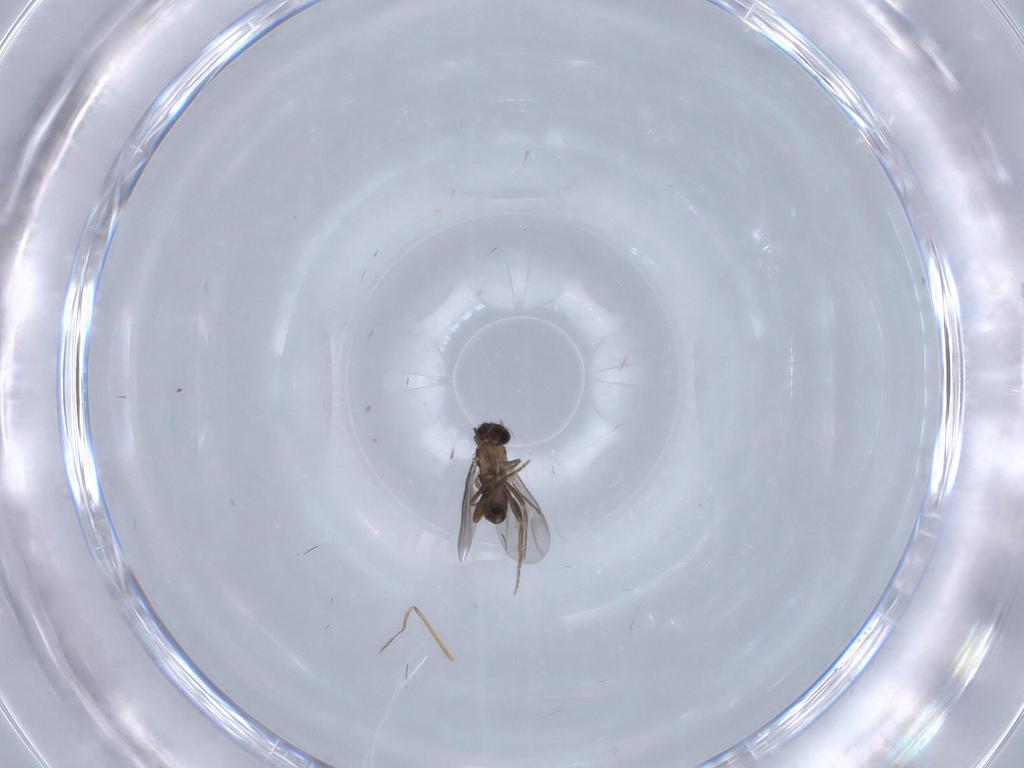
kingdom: Animalia
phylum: Arthropoda
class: Insecta
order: Diptera
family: Chironomidae
